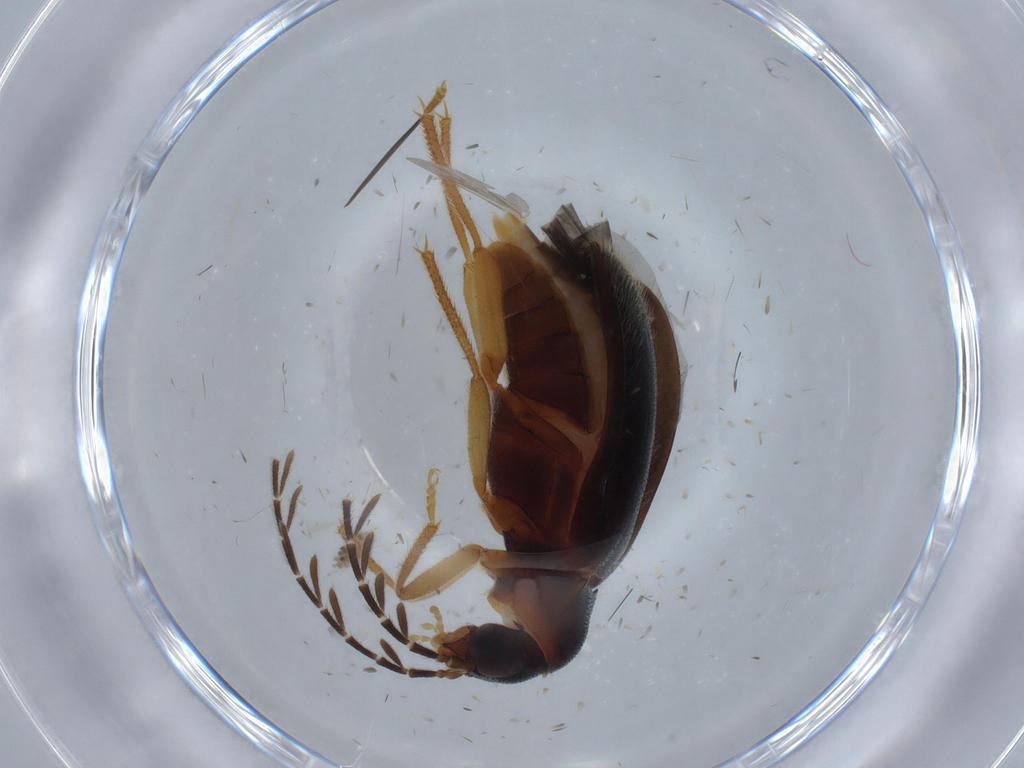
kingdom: Animalia
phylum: Arthropoda
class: Insecta
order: Coleoptera
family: Ptilodactylidae
